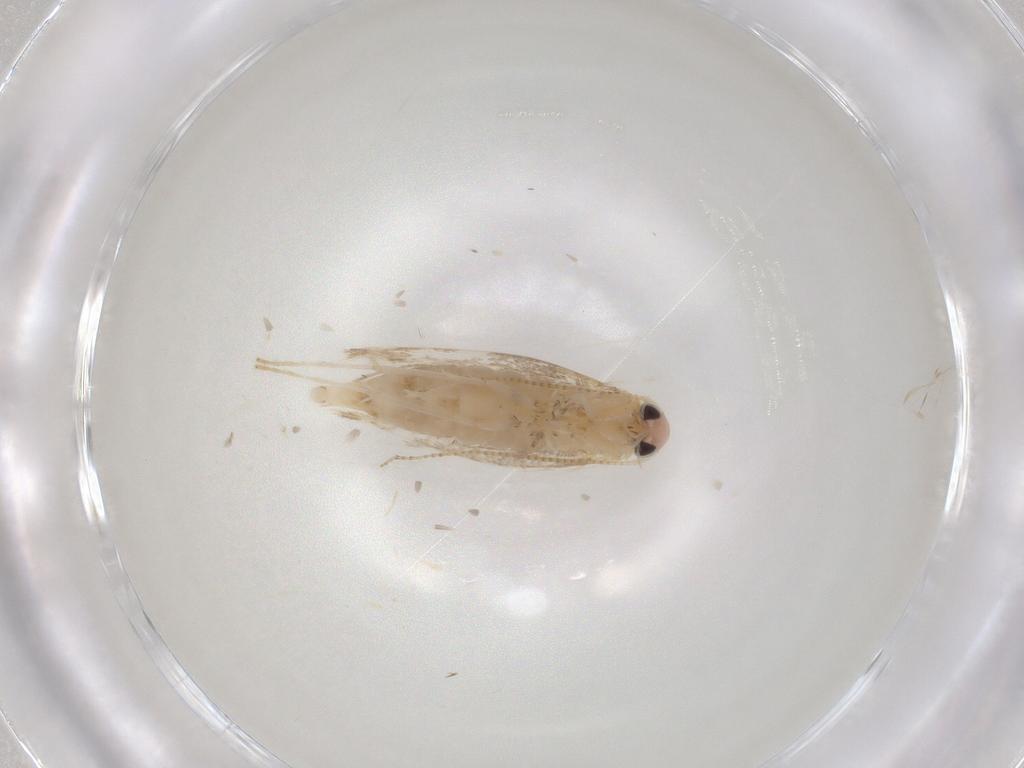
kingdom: Animalia
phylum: Arthropoda
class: Insecta
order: Lepidoptera
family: Gracillariidae
